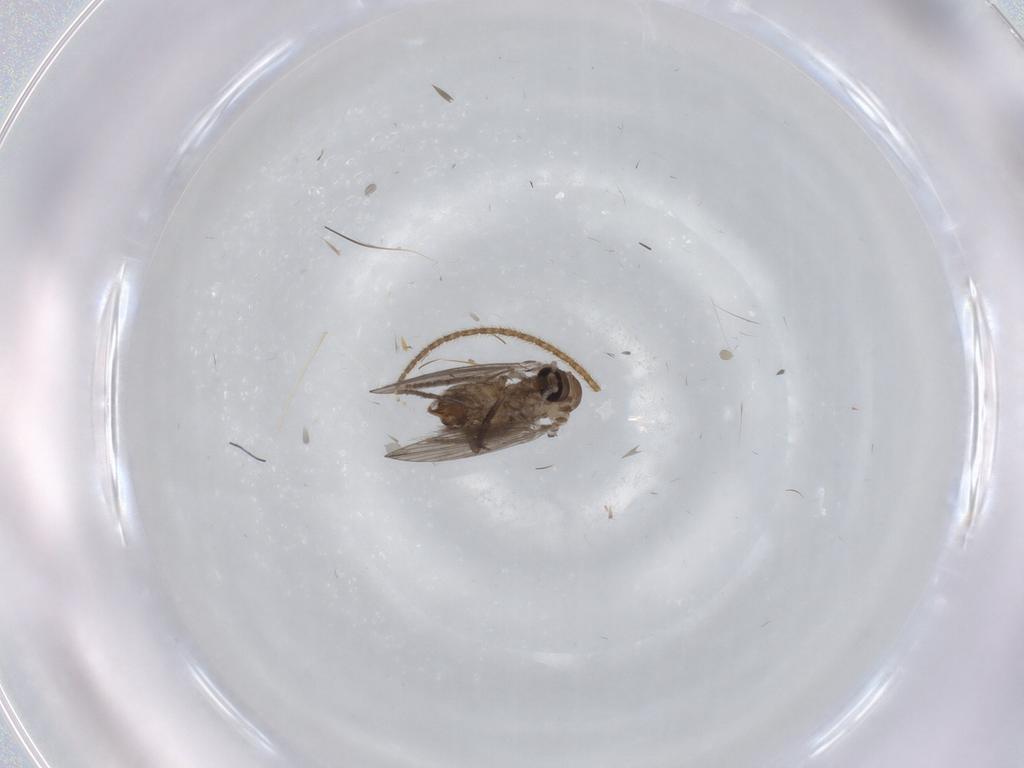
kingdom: Animalia
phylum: Arthropoda
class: Insecta
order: Diptera
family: Psychodidae
